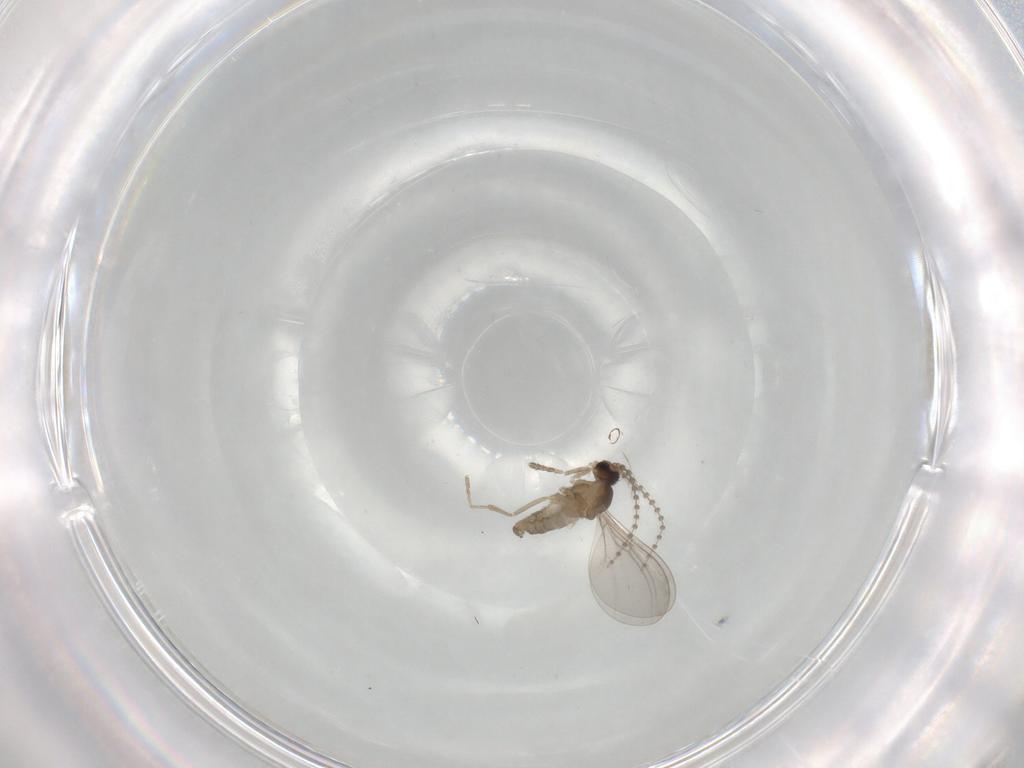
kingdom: Animalia
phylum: Arthropoda
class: Insecta
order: Diptera
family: Cecidomyiidae
